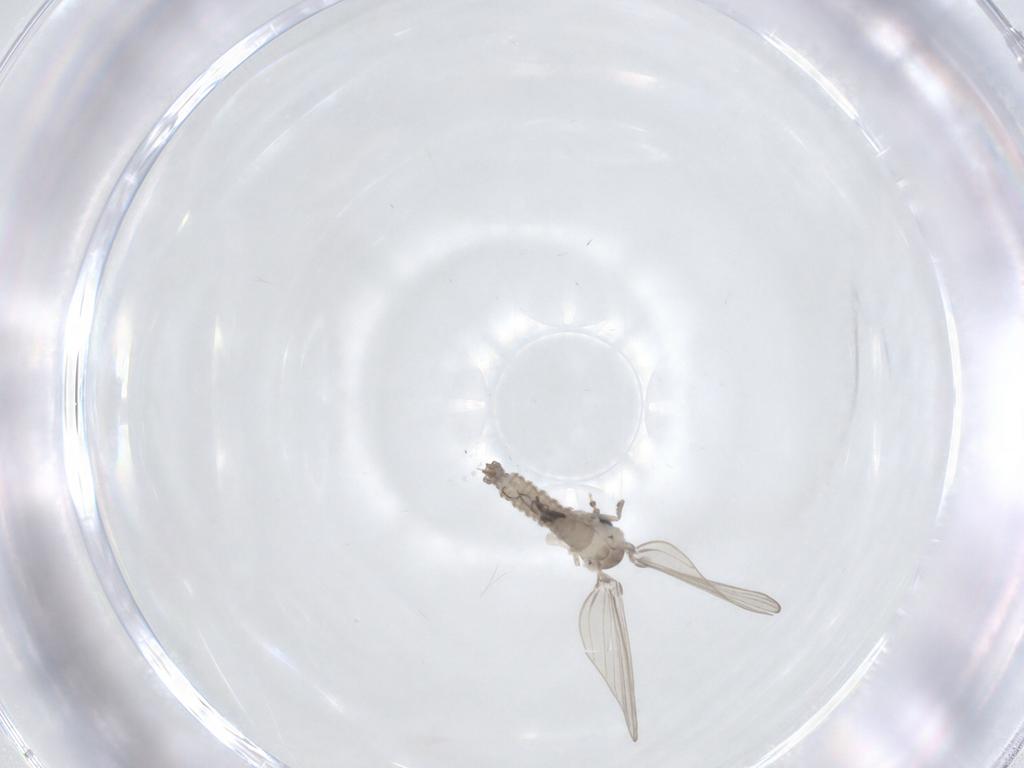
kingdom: Animalia
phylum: Arthropoda
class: Insecta
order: Diptera
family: Psychodidae
